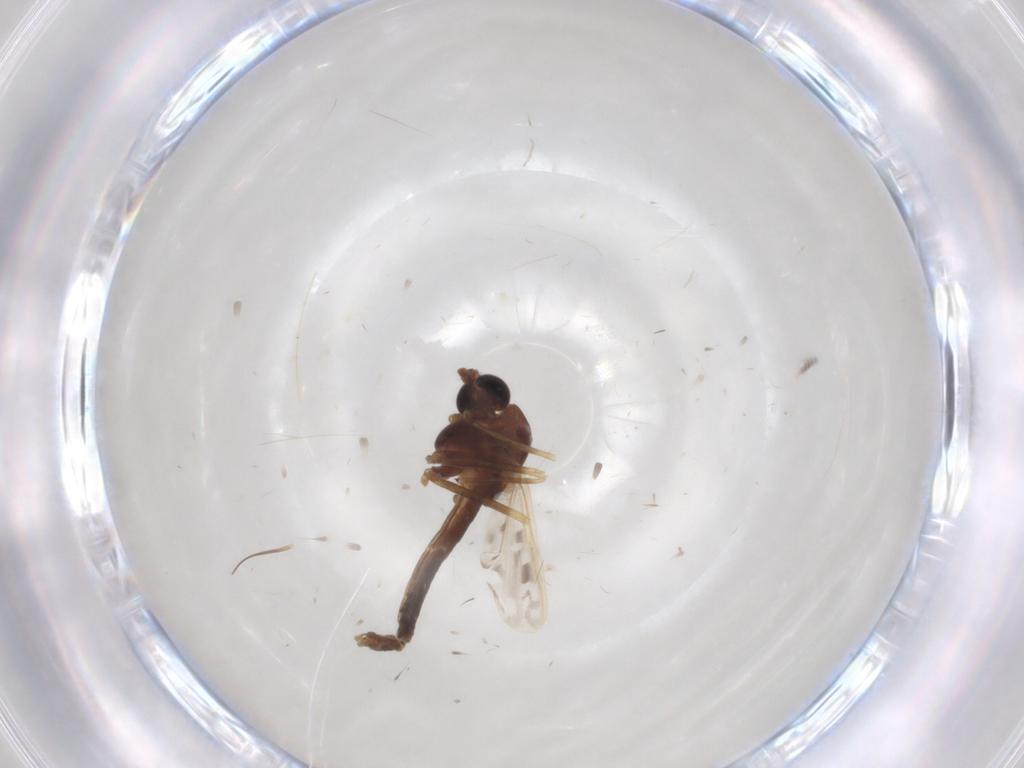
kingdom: Animalia
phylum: Arthropoda
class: Insecta
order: Diptera
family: Chironomidae
